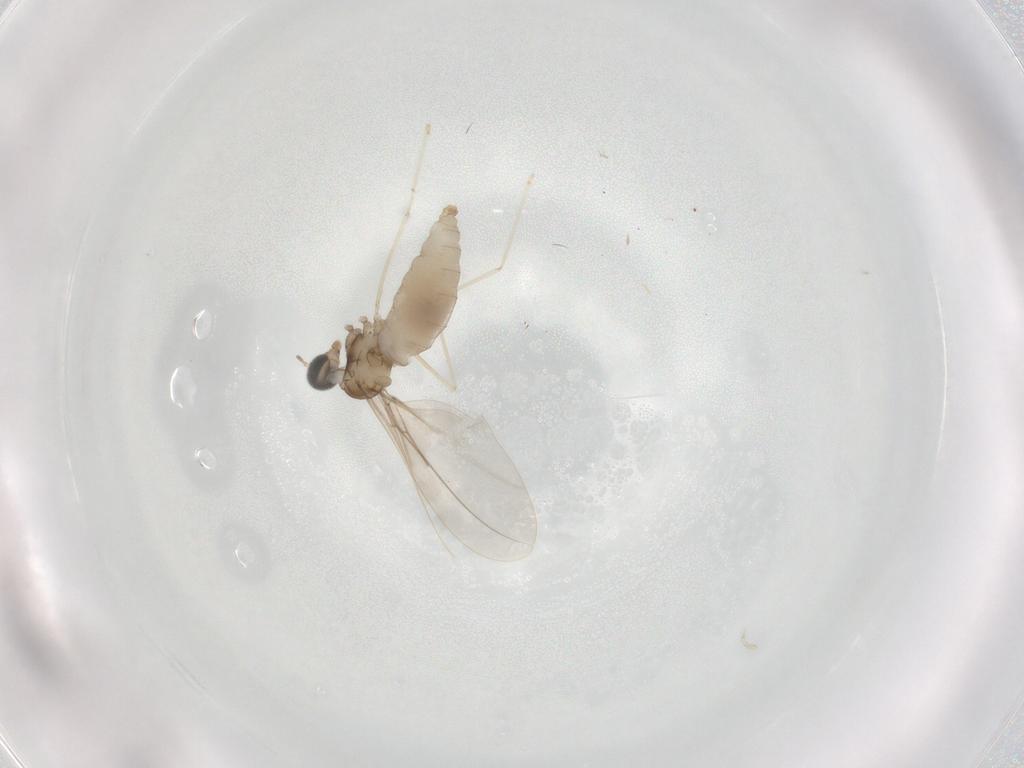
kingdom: Animalia
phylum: Arthropoda
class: Insecta
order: Diptera
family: Cecidomyiidae
